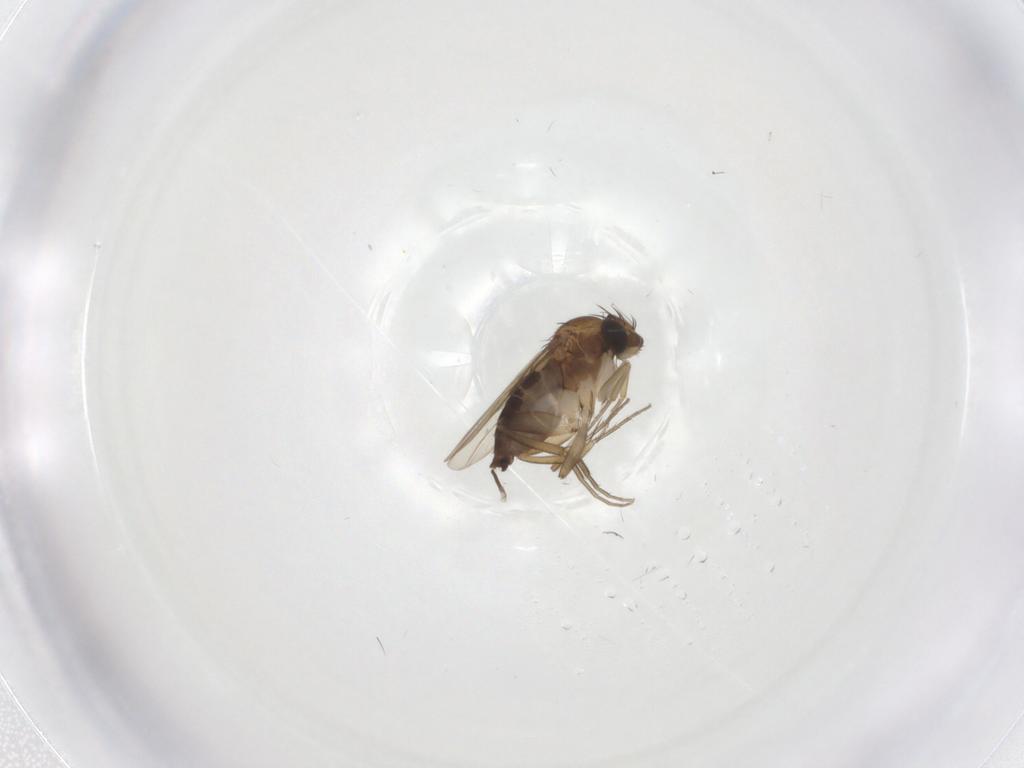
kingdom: Animalia
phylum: Arthropoda
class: Insecta
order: Diptera
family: Phoridae
